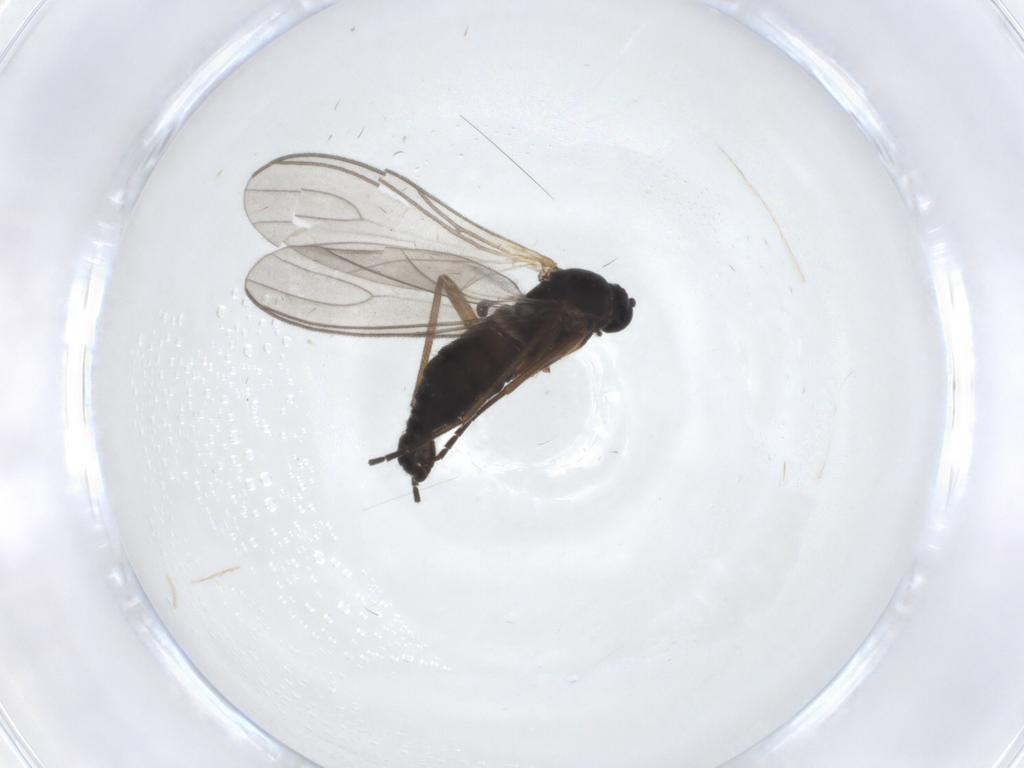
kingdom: Animalia
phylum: Arthropoda
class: Insecta
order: Diptera
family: Sciaridae
